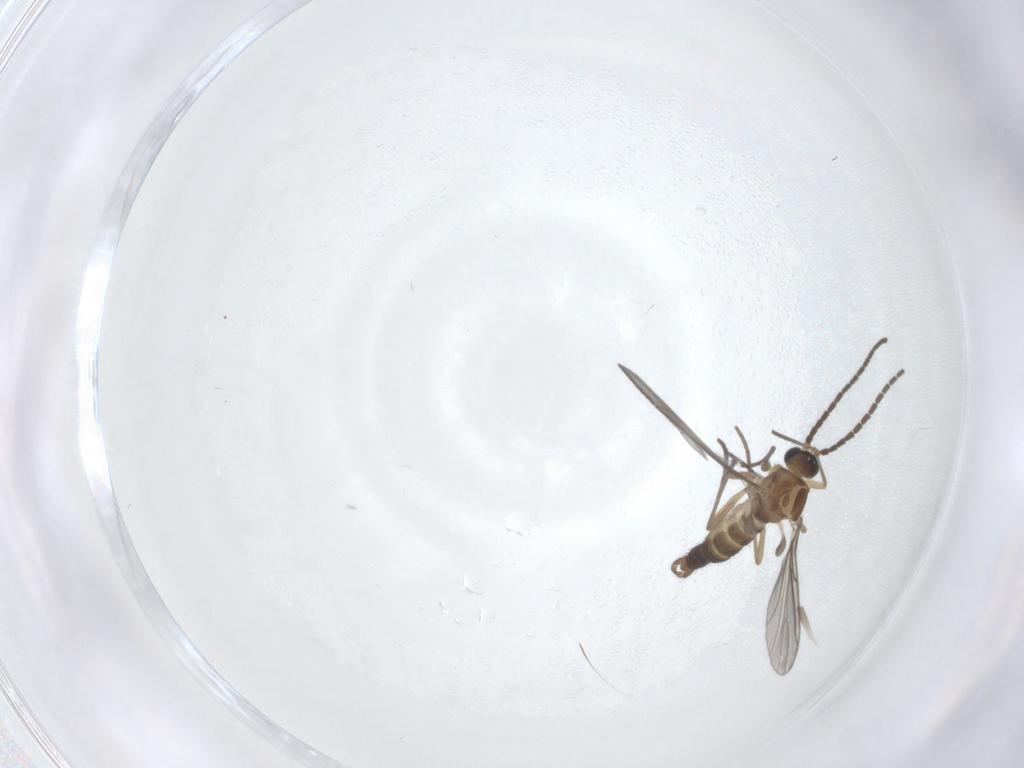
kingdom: Animalia
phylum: Arthropoda
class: Insecta
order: Diptera
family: Sciaridae
